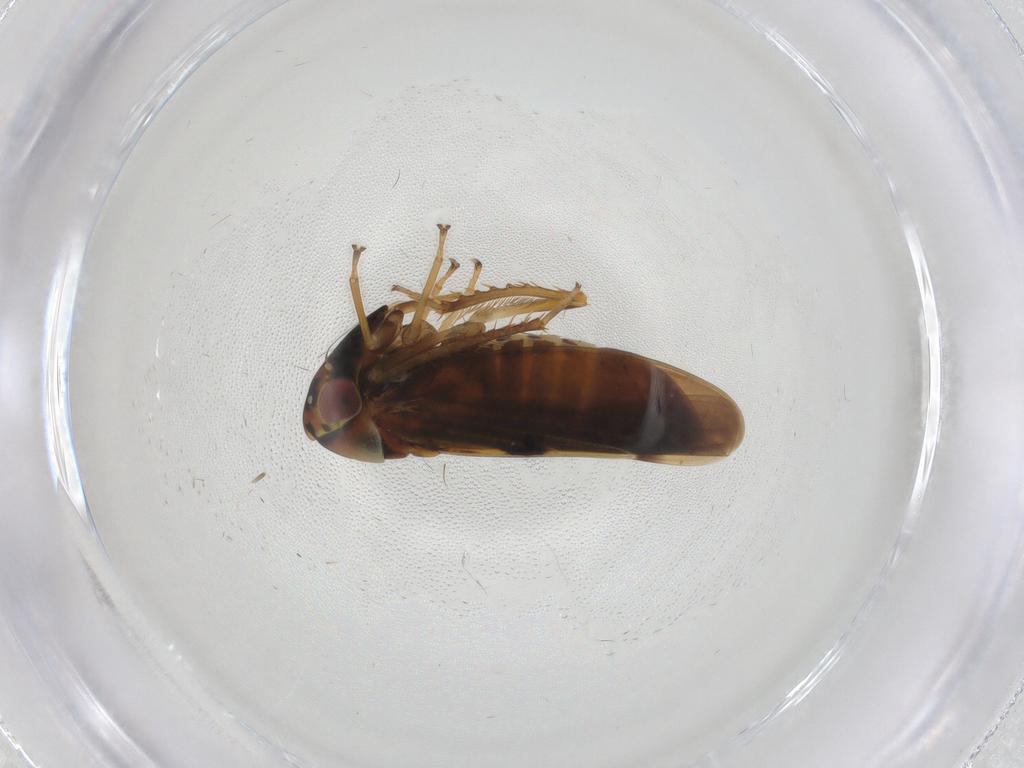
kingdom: Animalia
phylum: Arthropoda
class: Insecta
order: Hemiptera
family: Cicadellidae
